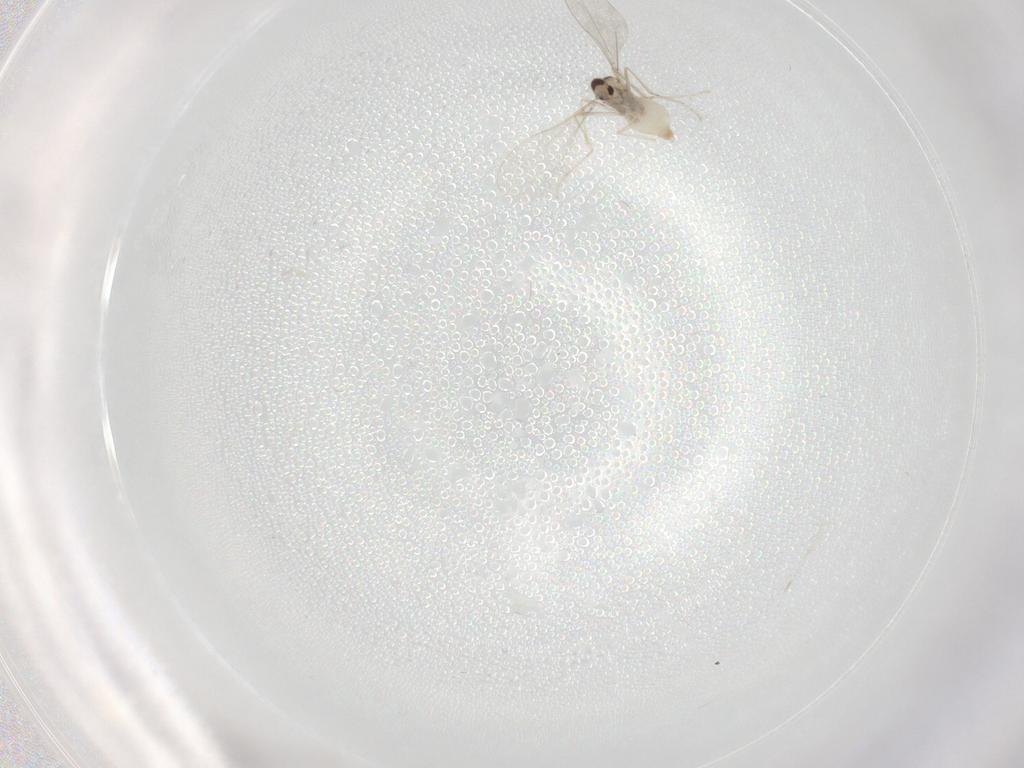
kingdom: Animalia
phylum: Arthropoda
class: Insecta
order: Diptera
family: Cecidomyiidae
